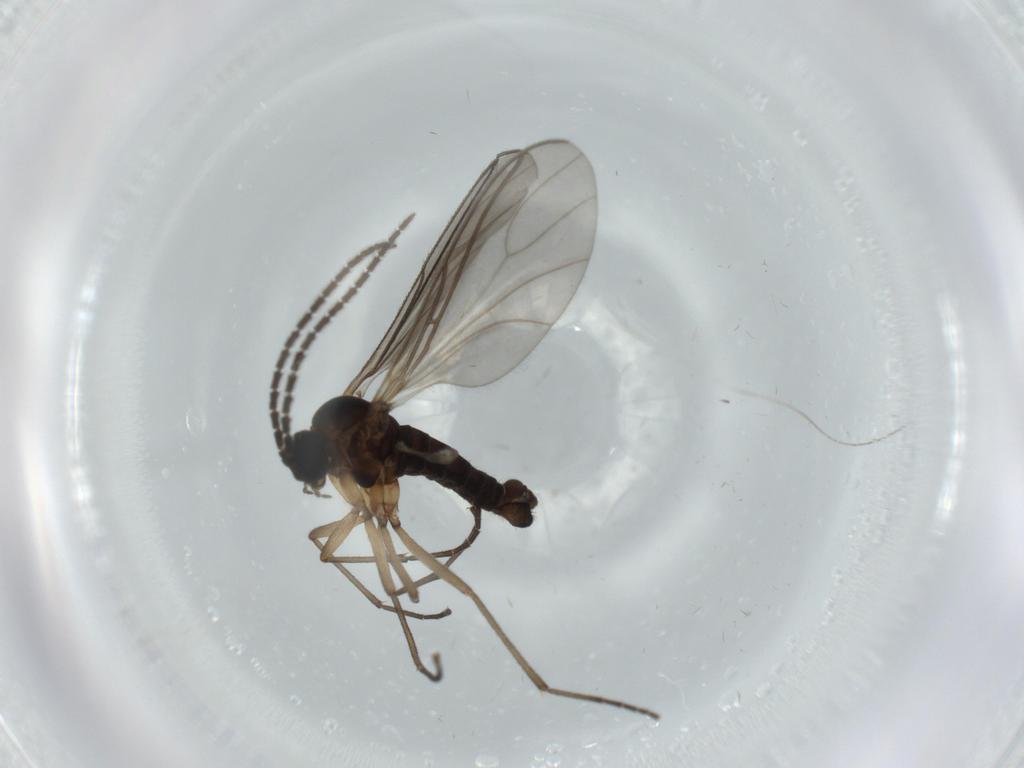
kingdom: Animalia
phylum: Arthropoda
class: Insecta
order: Diptera
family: Sciaridae
